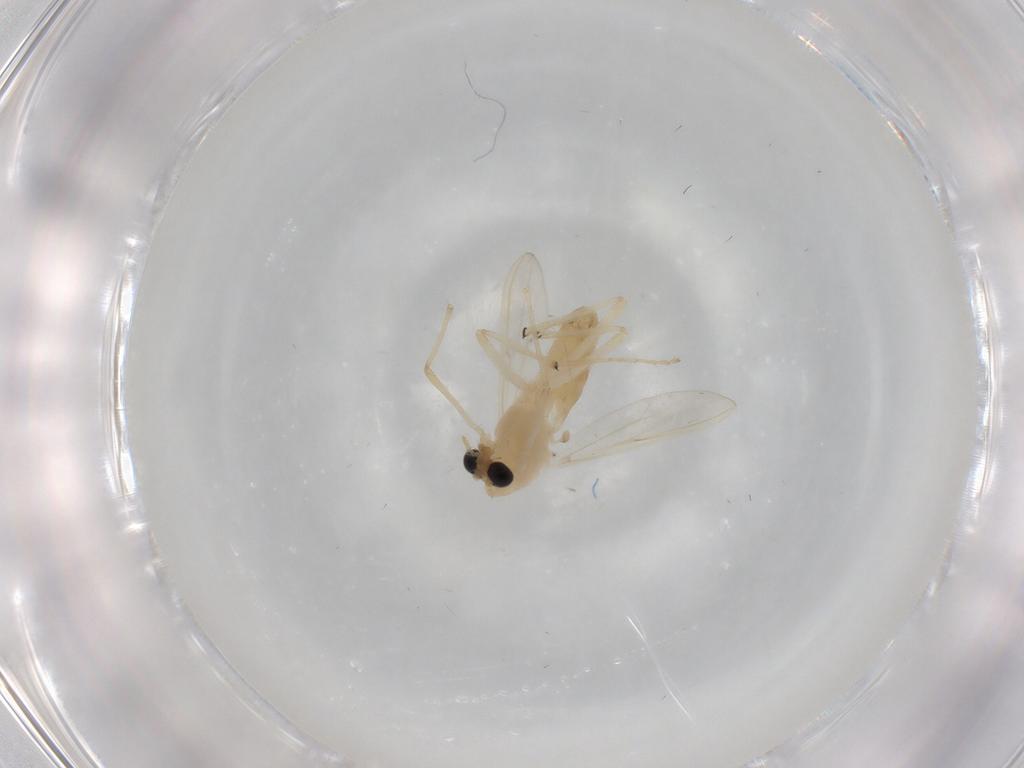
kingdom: Animalia
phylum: Arthropoda
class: Insecta
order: Diptera
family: Chironomidae
